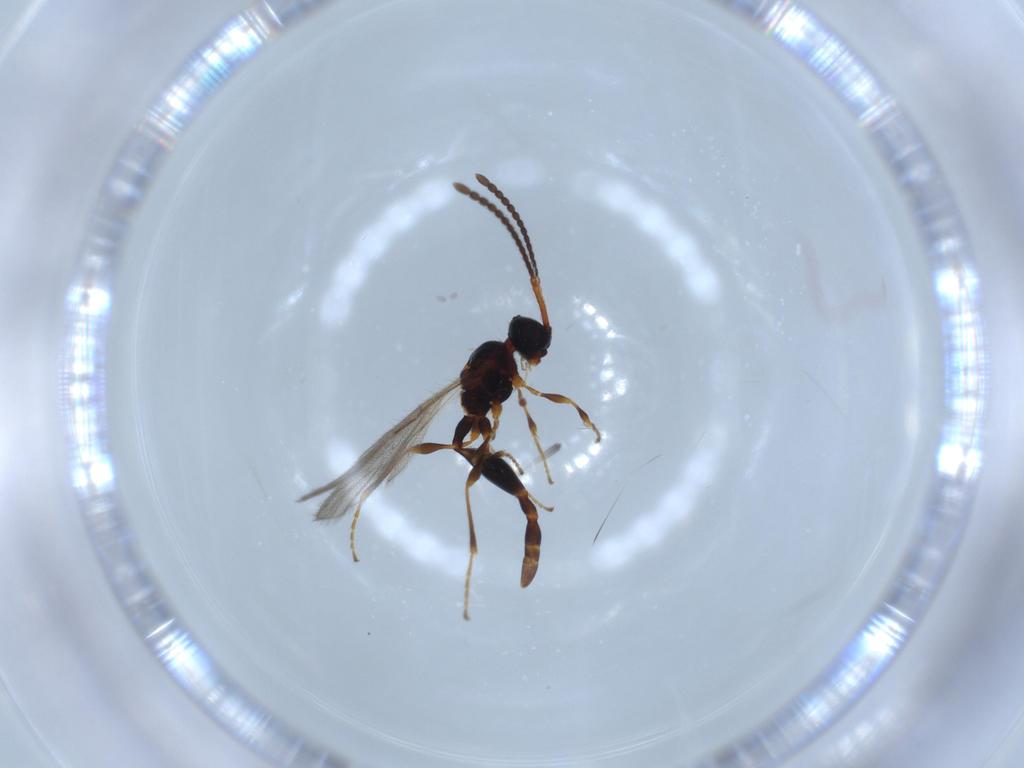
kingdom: Animalia
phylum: Arthropoda
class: Insecta
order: Hymenoptera
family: Diapriidae
